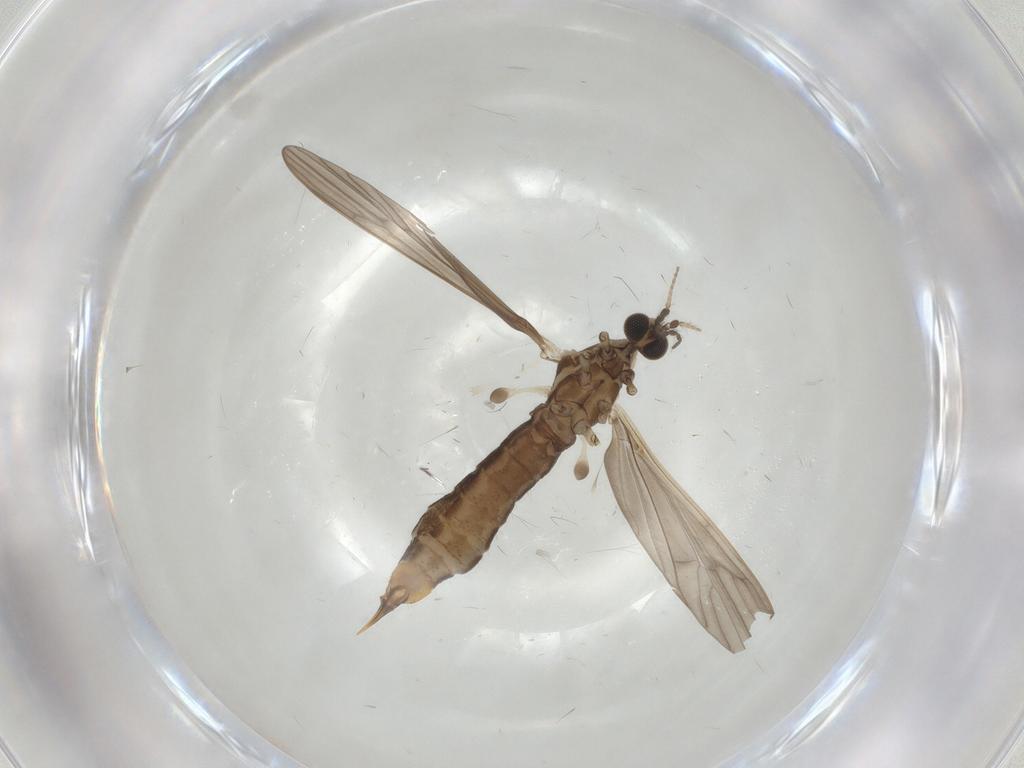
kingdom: Animalia
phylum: Arthropoda
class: Insecta
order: Diptera
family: Limoniidae
